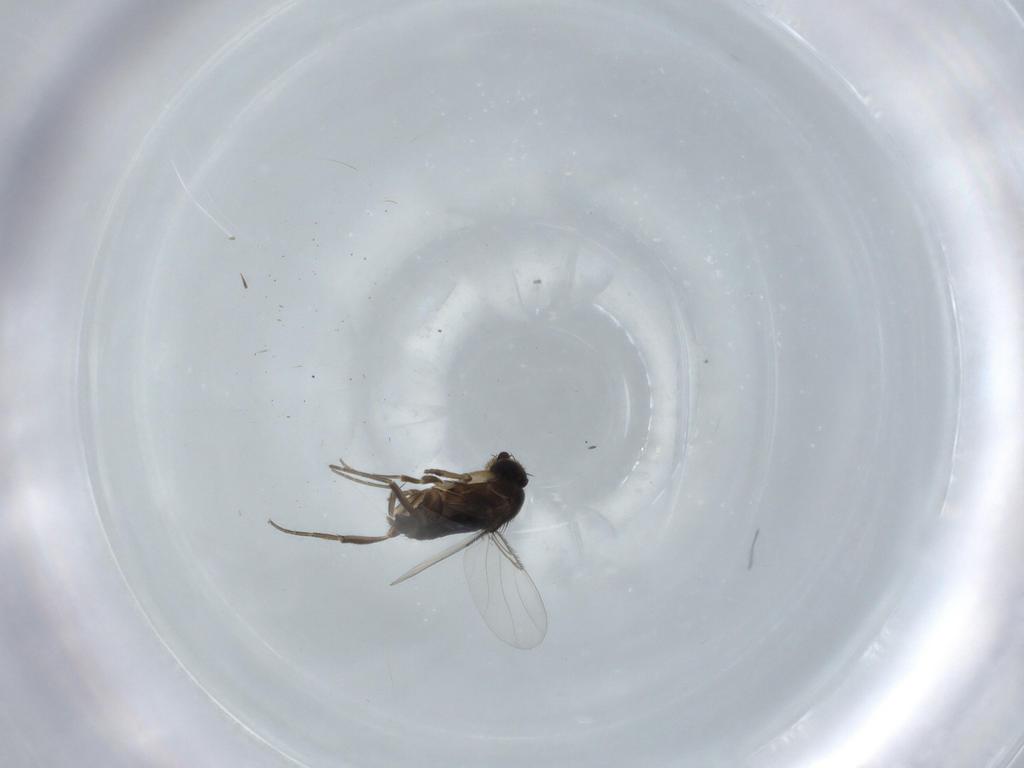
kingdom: Animalia
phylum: Arthropoda
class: Insecta
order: Diptera
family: Phoridae
